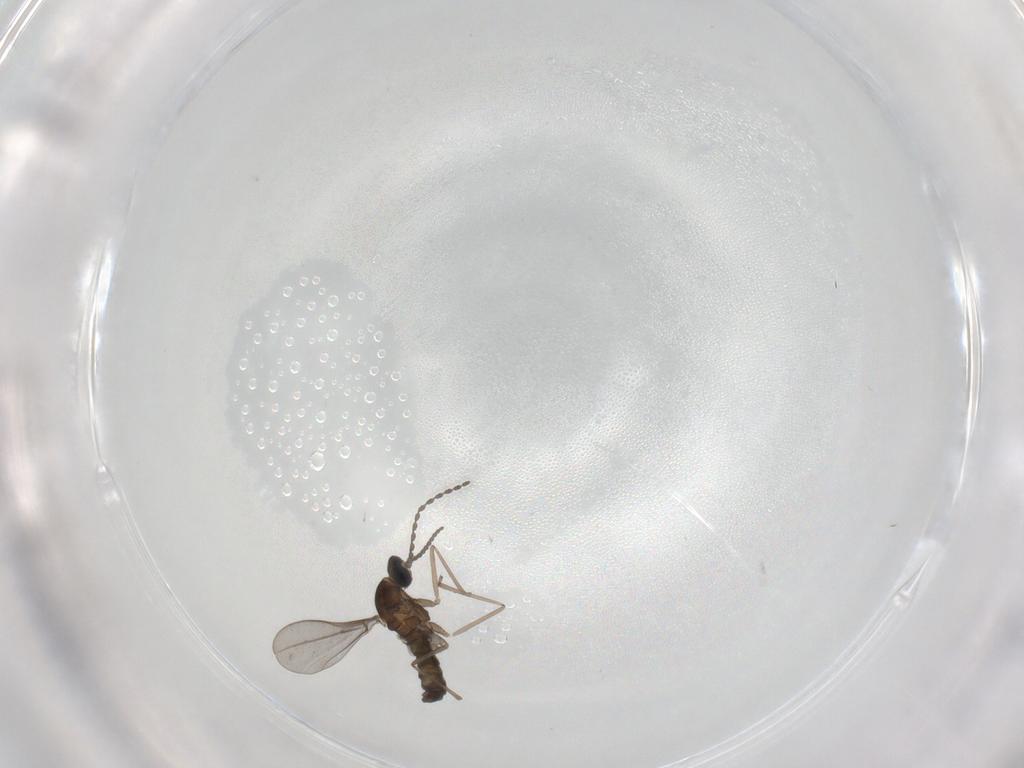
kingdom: Animalia
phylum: Arthropoda
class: Insecta
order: Diptera
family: Cecidomyiidae
